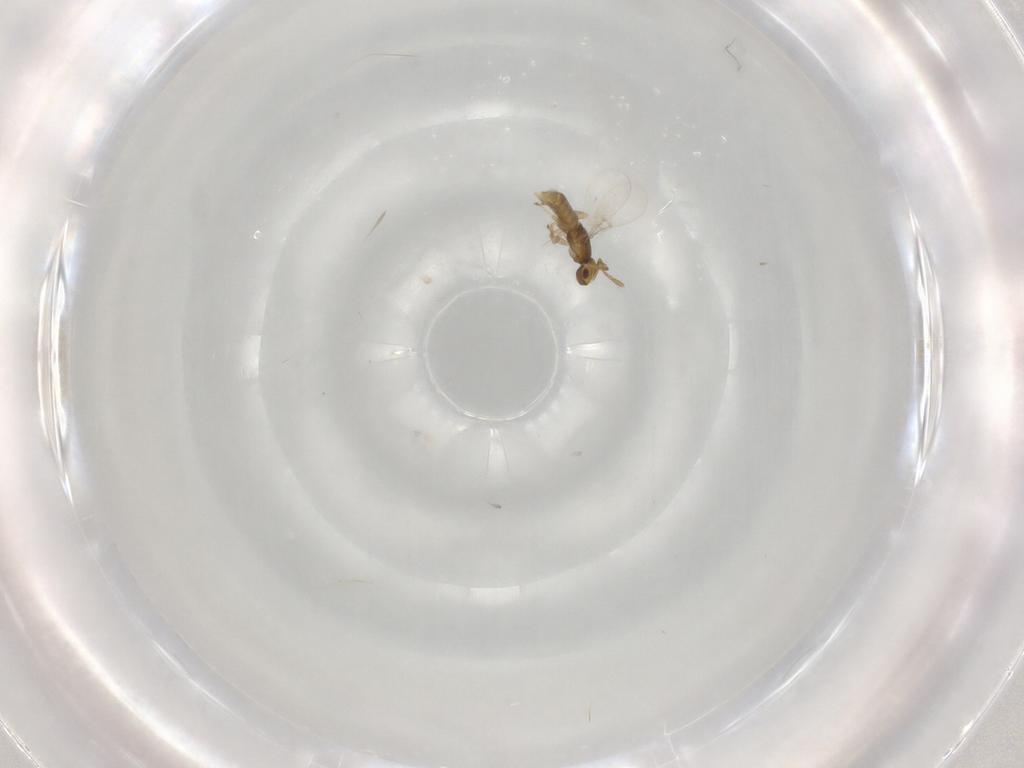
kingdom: Animalia
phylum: Arthropoda
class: Insecta
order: Hymenoptera
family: Encyrtidae
